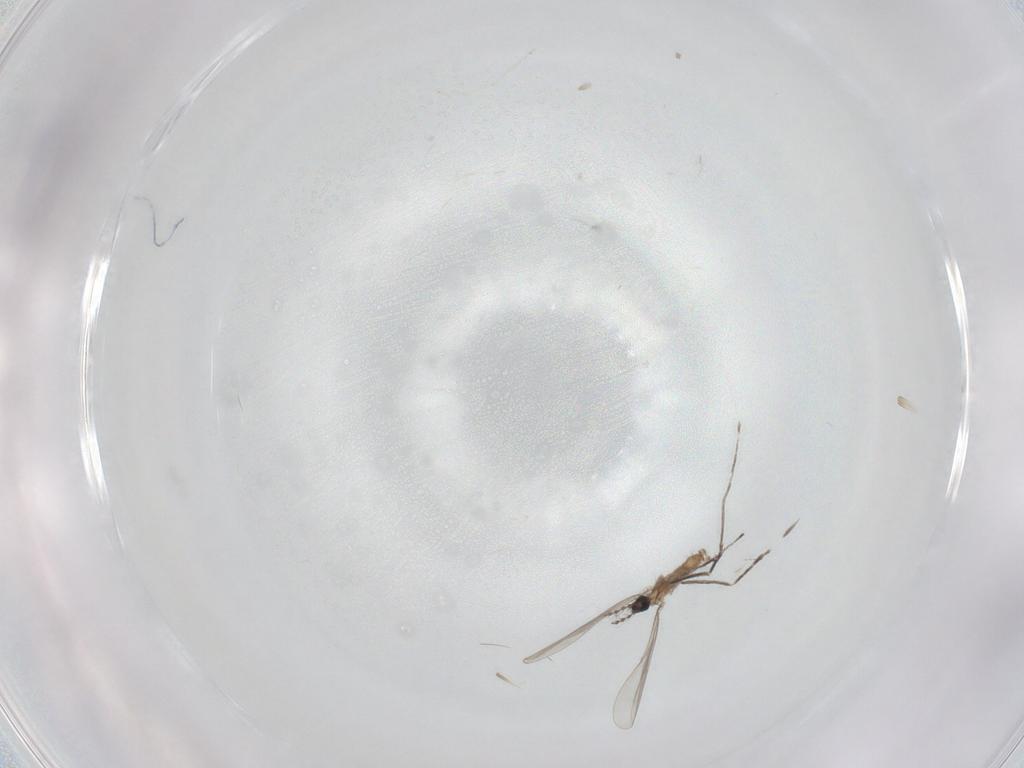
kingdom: Animalia
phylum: Arthropoda
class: Insecta
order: Diptera
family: Cecidomyiidae
